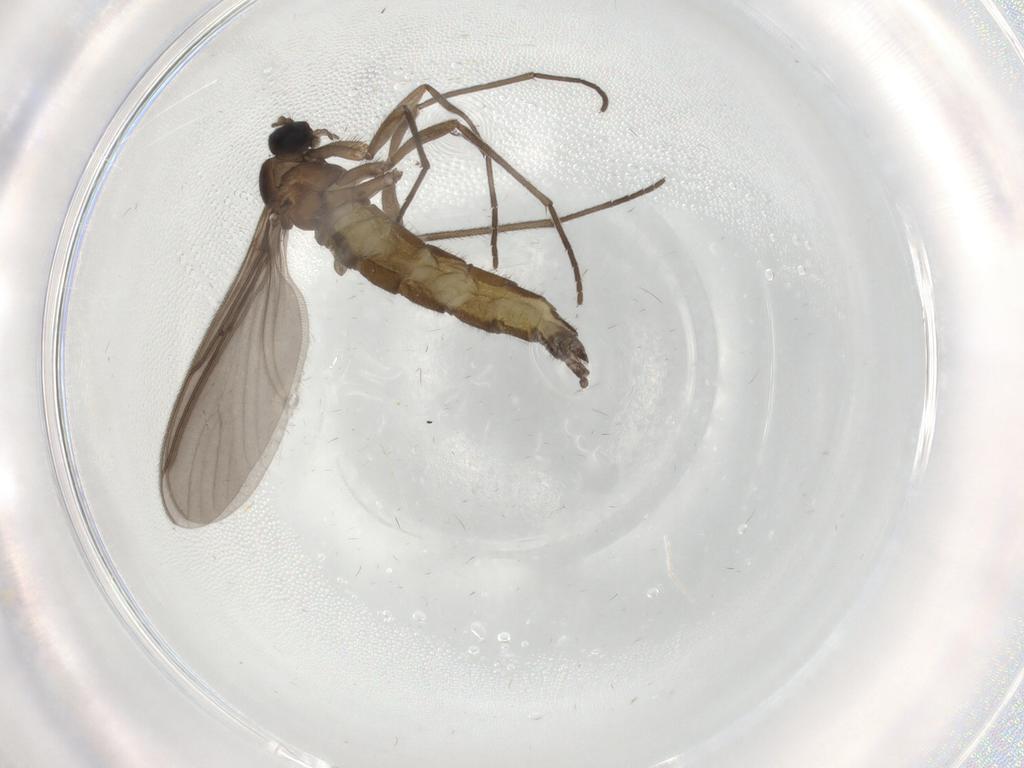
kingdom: Animalia
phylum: Arthropoda
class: Insecta
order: Diptera
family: Sciaridae
